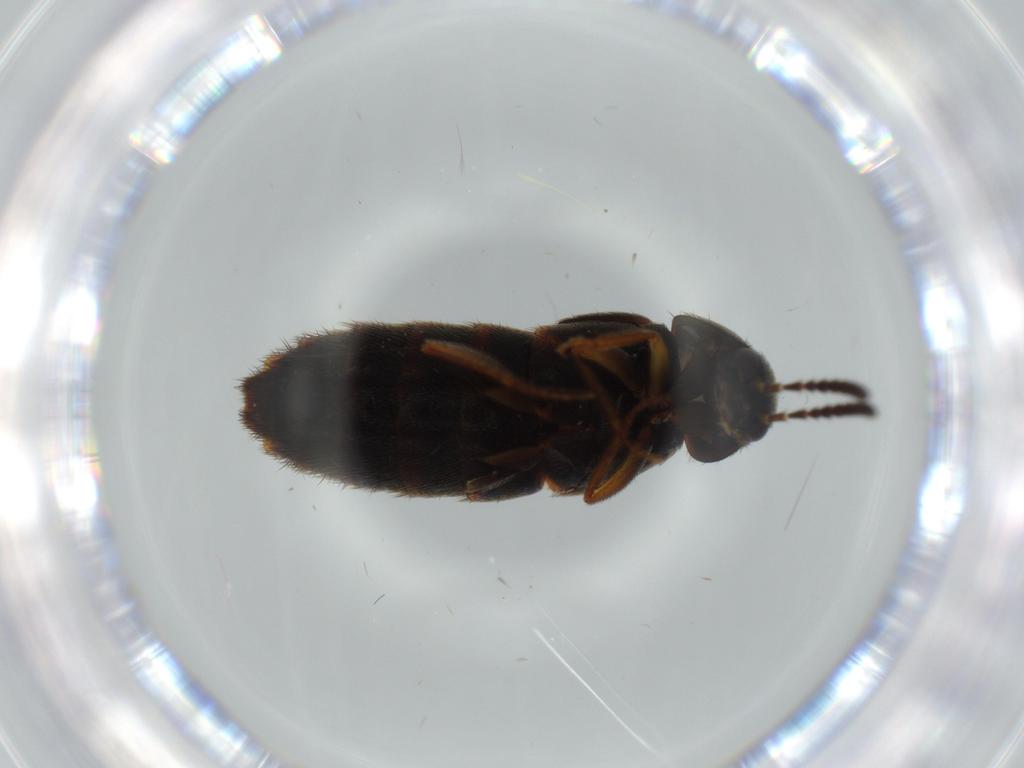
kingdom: Animalia
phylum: Arthropoda
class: Insecta
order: Coleoptera
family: Staphylinidae
